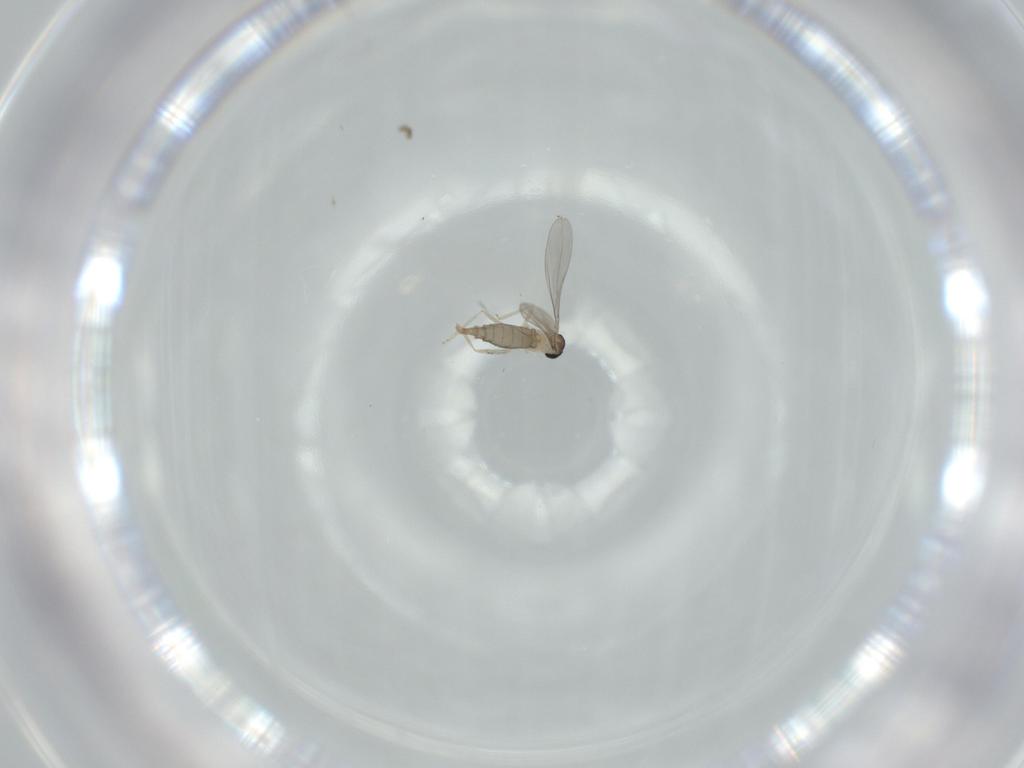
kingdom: Animalia
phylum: Arthropoda
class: Insecta
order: Diptera
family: Cecidomyiidae
